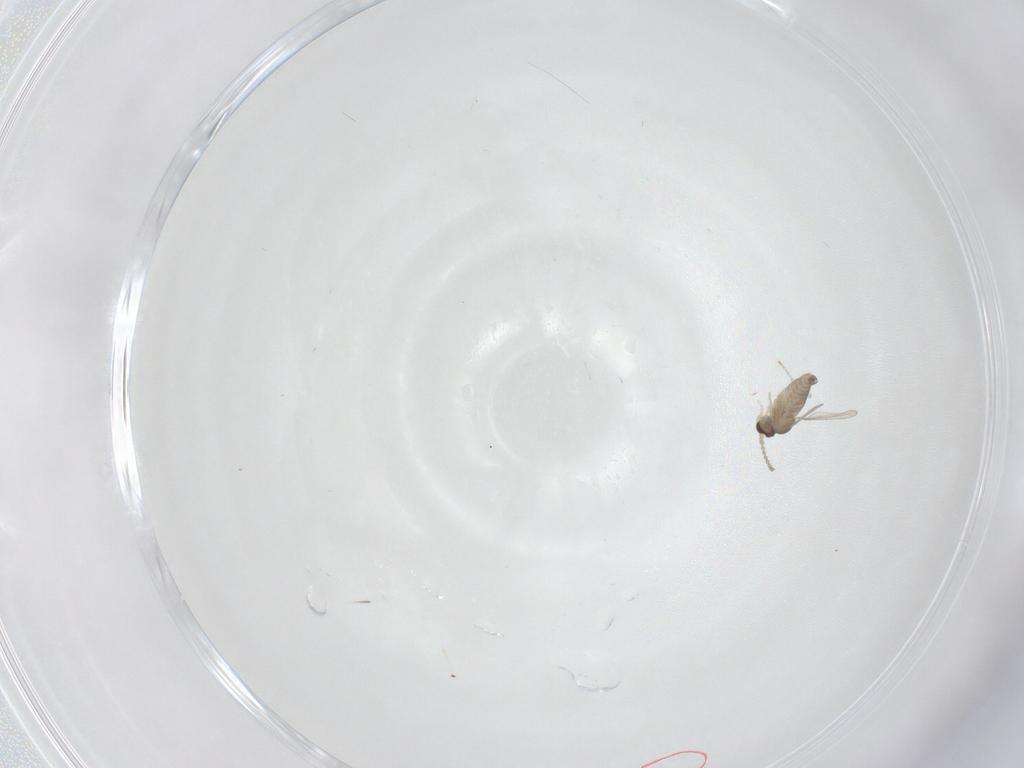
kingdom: Animalia
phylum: Arthropoda
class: Insecta
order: Diptera
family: Cecidomyiidae
